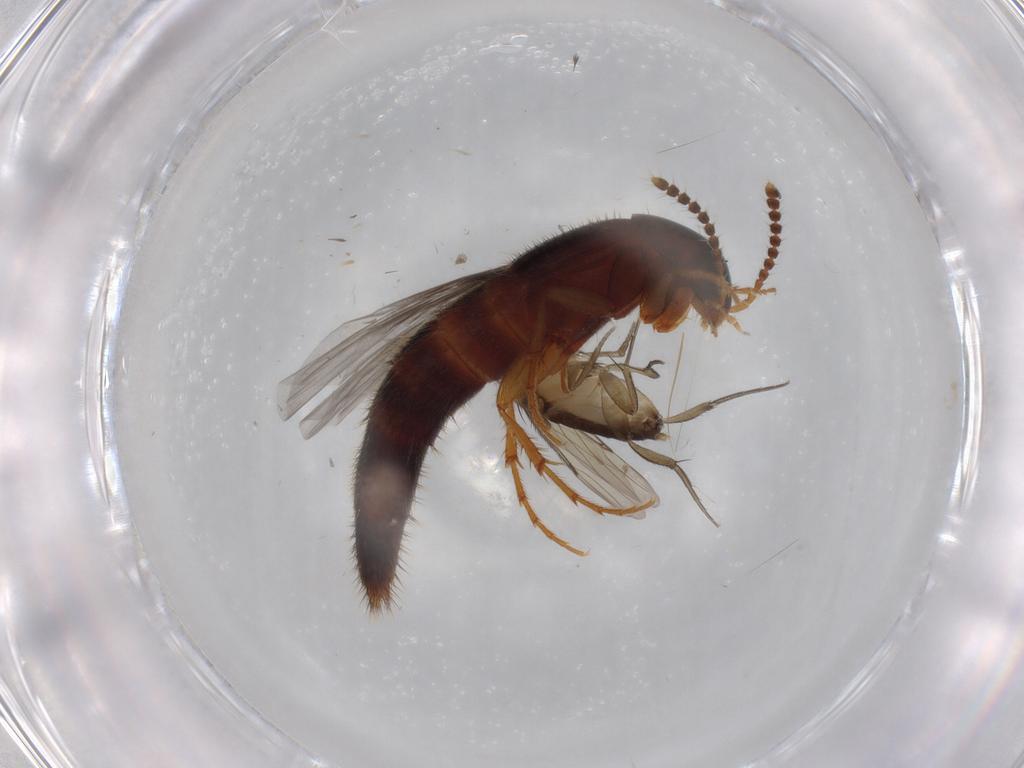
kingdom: Animalia
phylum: Arthropoda
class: Insecta
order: Coleoptera
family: Staphylinidae
